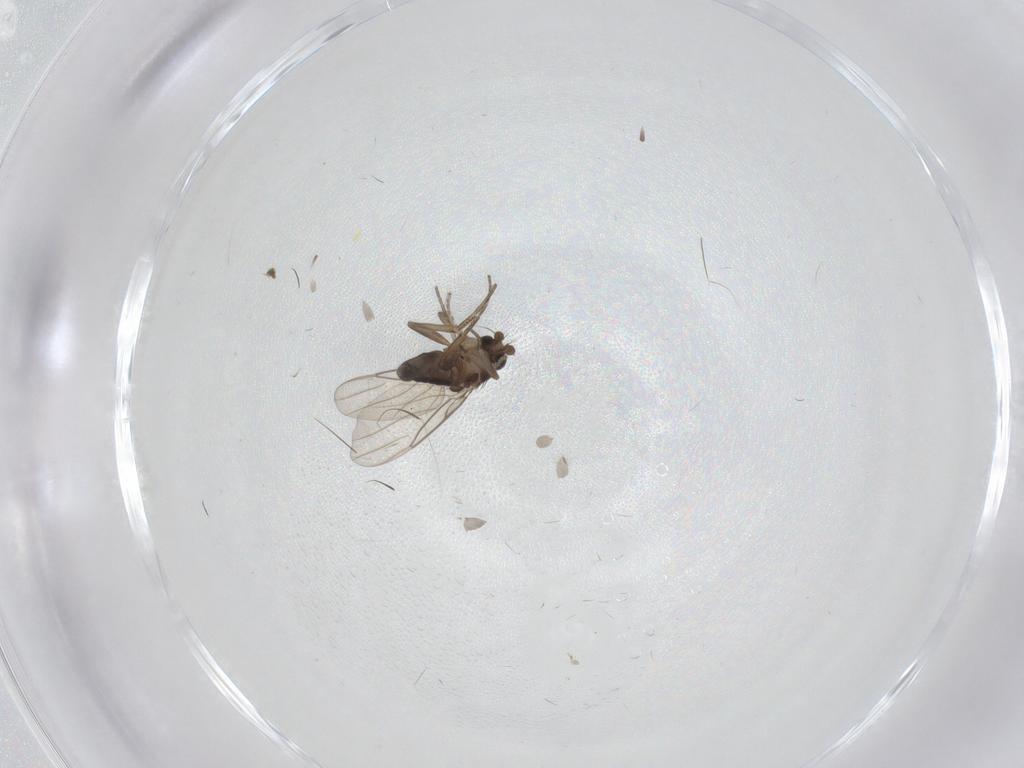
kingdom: Animalia
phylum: Arthropoda
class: Insecta
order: Diptera
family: Phoridae
